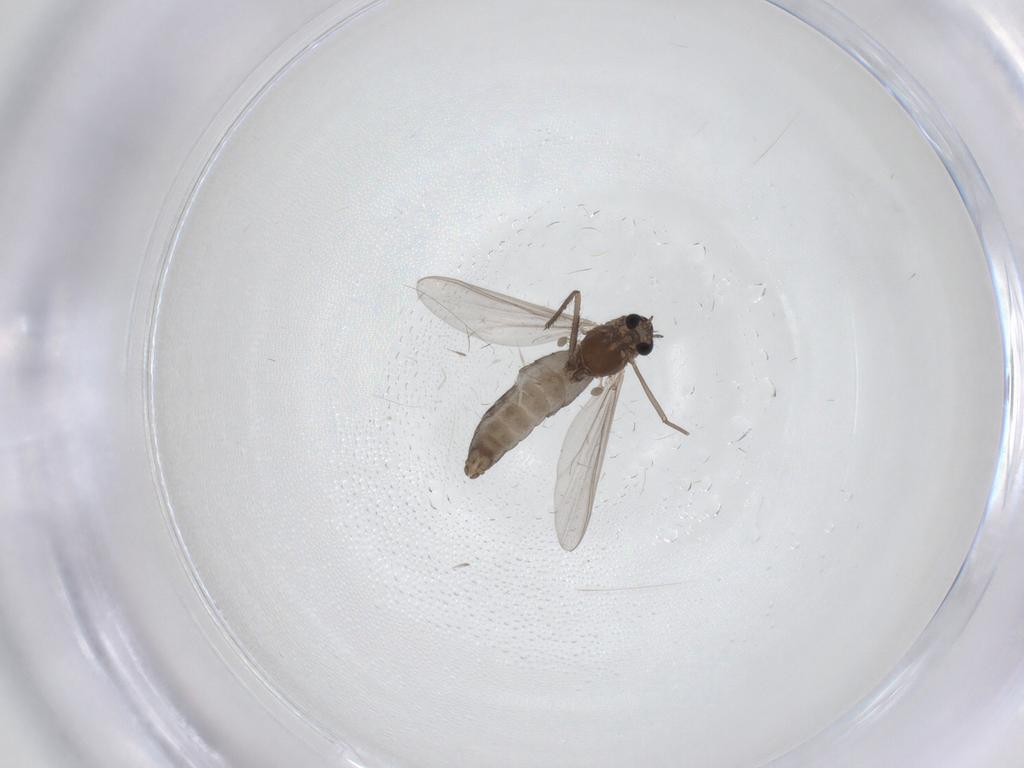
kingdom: Animalia
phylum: Arthropoda
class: Insecta
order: Diptera
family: Chironomidae
